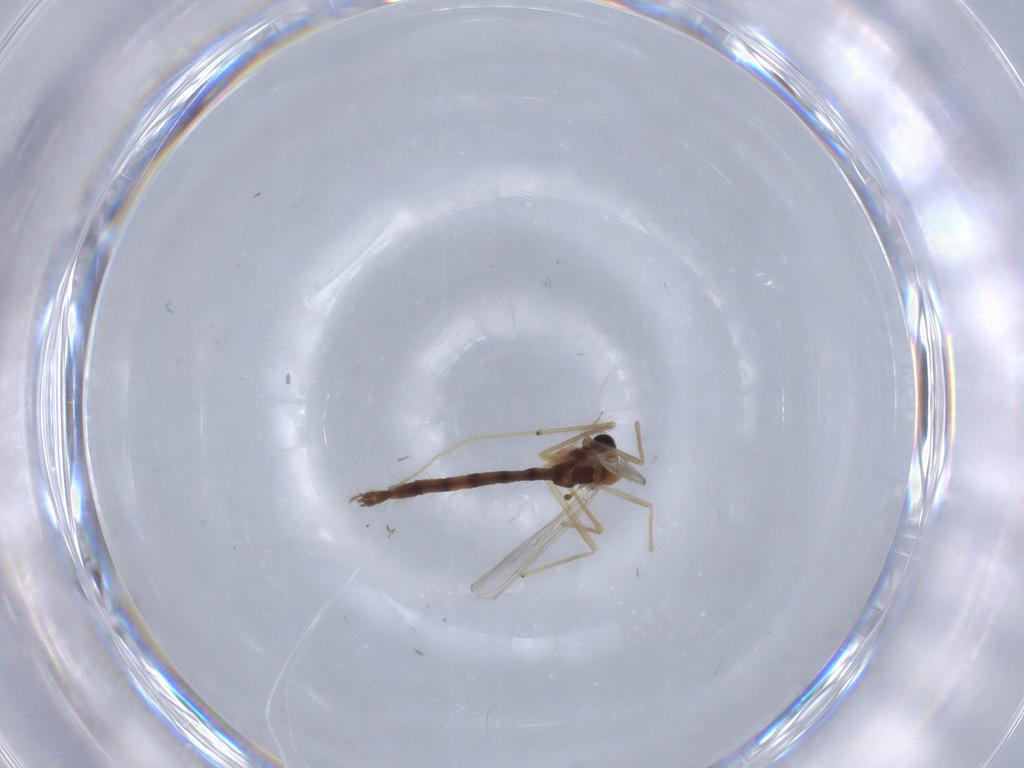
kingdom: Animalia
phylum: Arthropoda
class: Insecta
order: Diptera
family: Chironomidae
